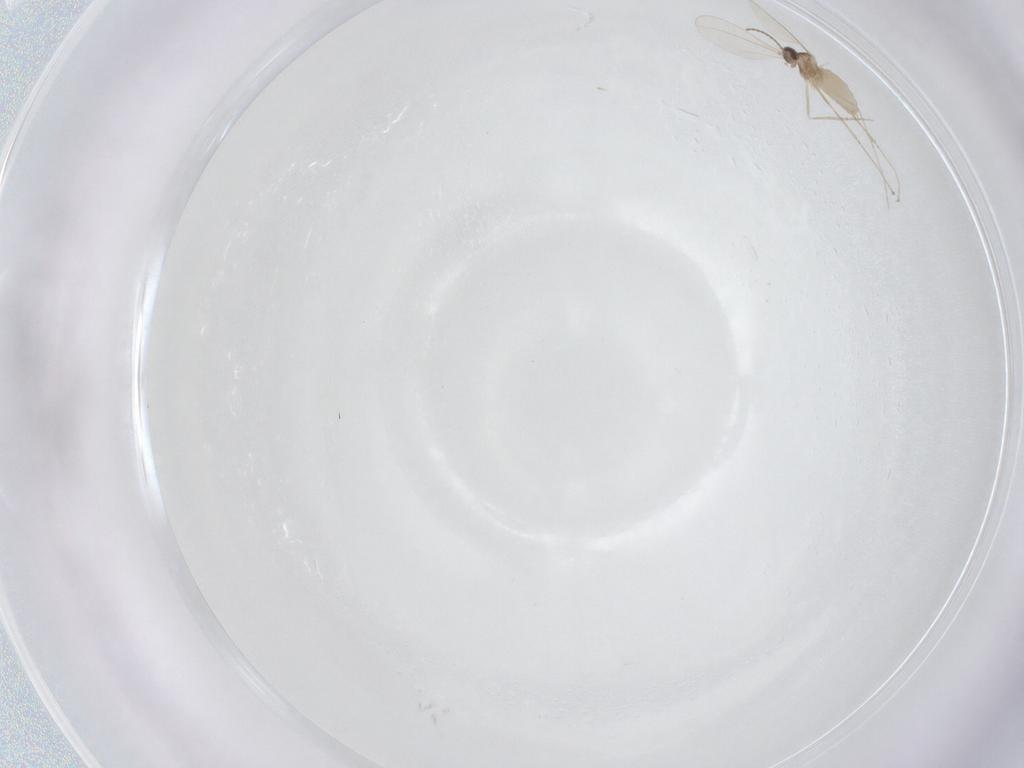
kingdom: Animalia
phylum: Arthropoda
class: Insecta
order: Diptera
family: Cecidomyiidae
